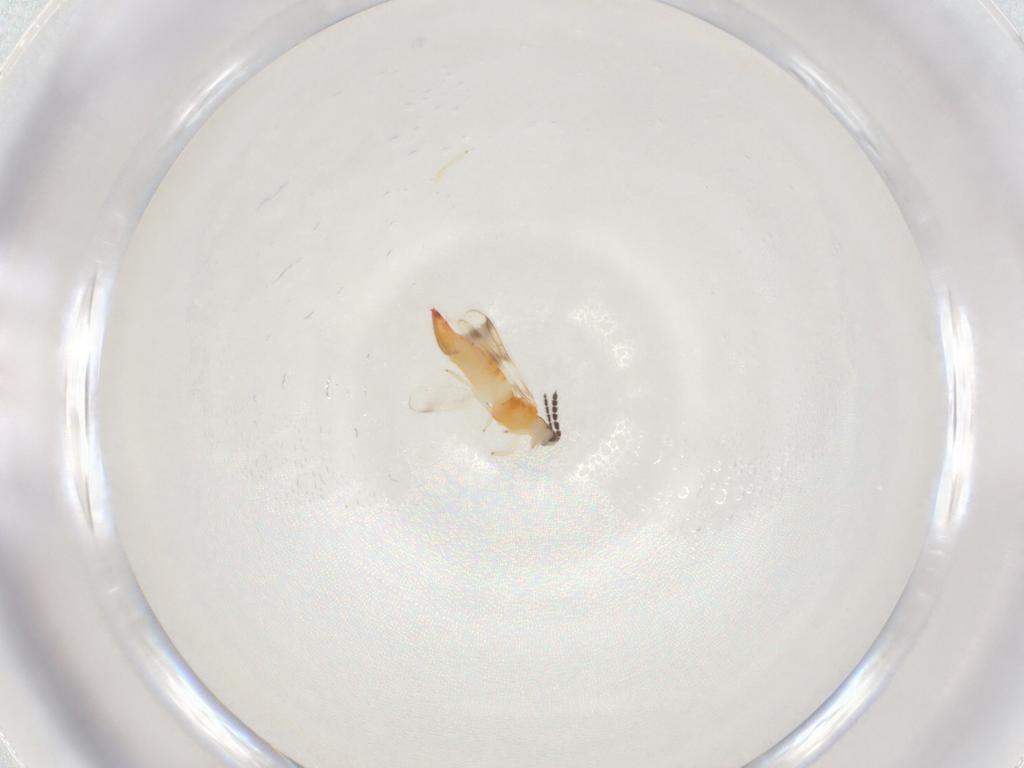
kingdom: Animalia
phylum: Arthropoda
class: Insecta
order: Thysanoptera
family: Aeolothripidae
